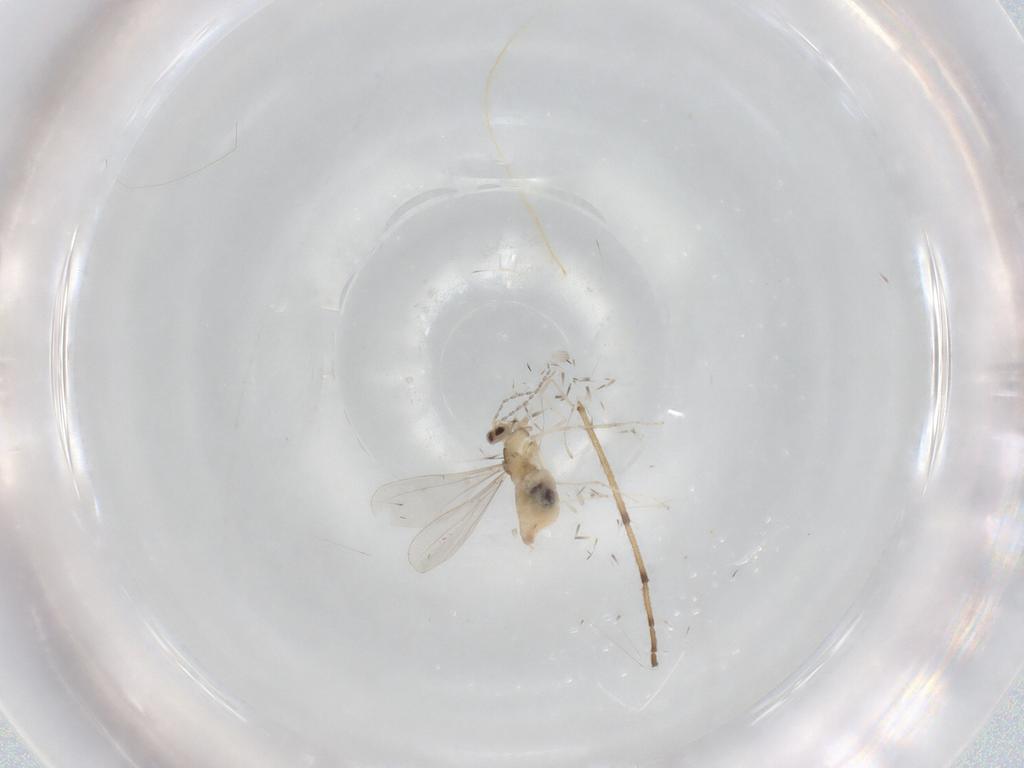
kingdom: Animalia
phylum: Arthropoda
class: Insecta
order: Diptera
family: Cecidomyiidae
